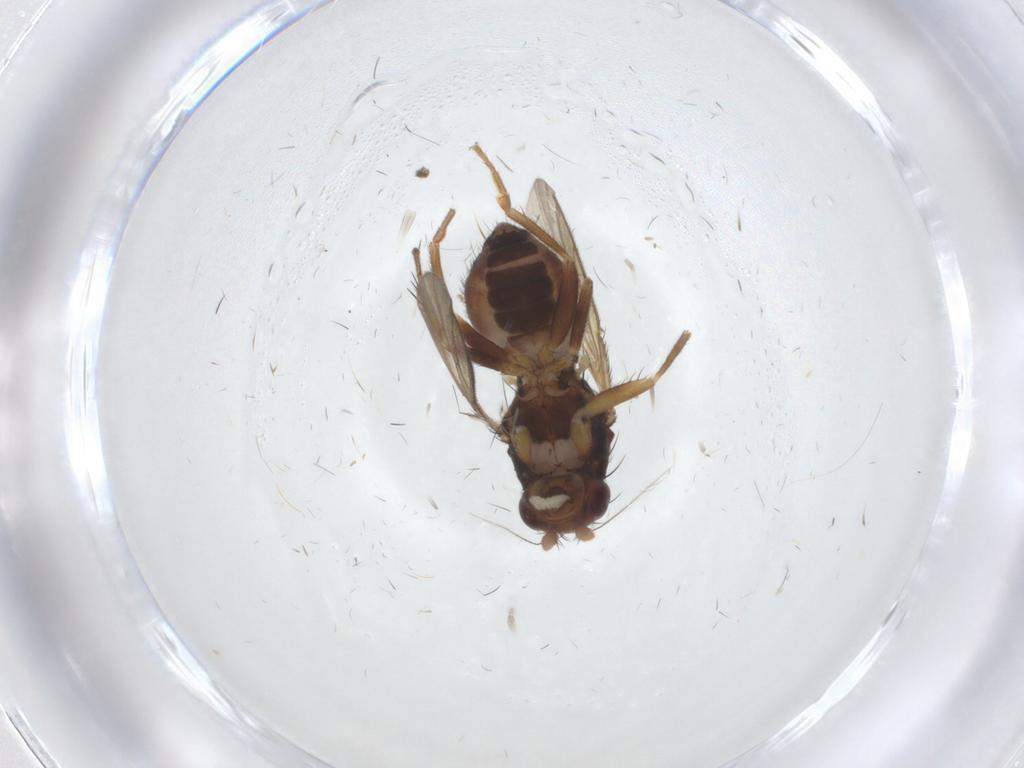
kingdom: Animalia
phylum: Arthropoda
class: Insecta
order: Diptera
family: Sphaeroceridae
